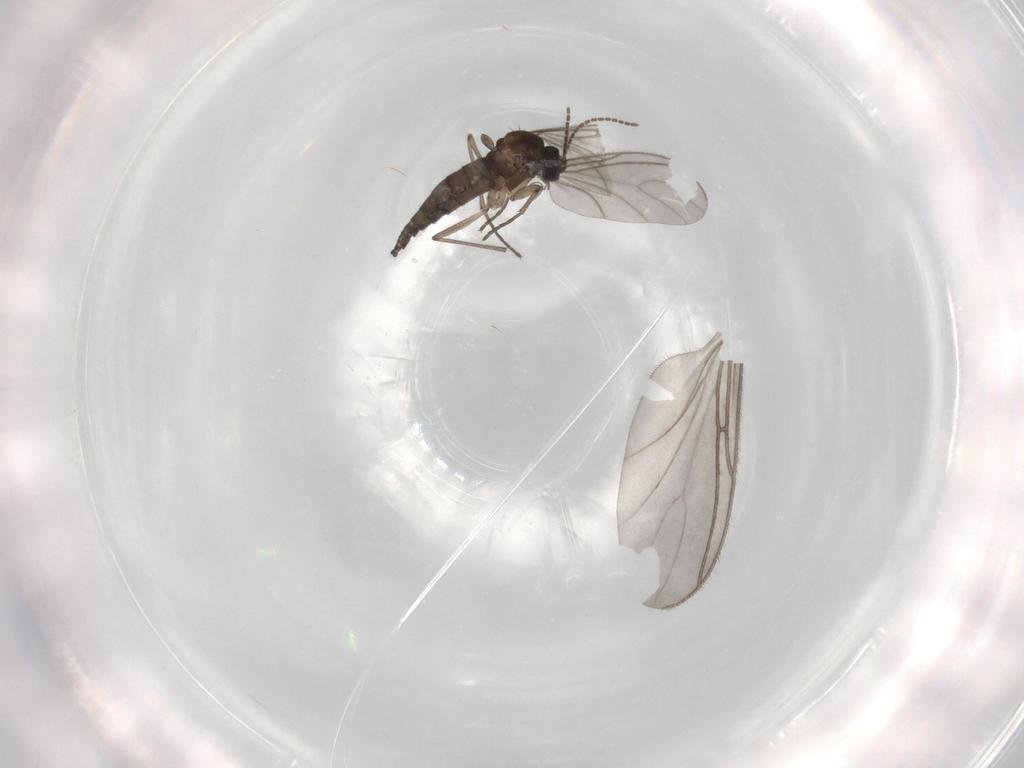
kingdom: Animalia
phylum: Arthropoda
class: Insecta
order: Diptera
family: Sciaridae
